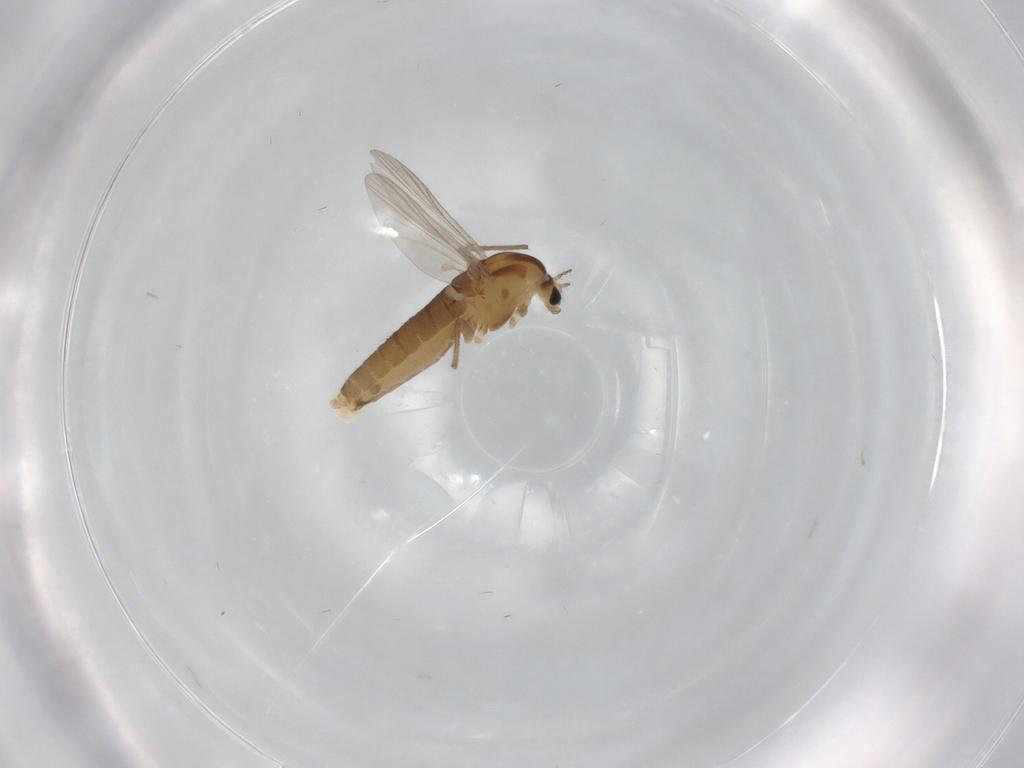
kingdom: Animalia
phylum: Arthropoda
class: Insecta
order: Diptera
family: Chironomidae
